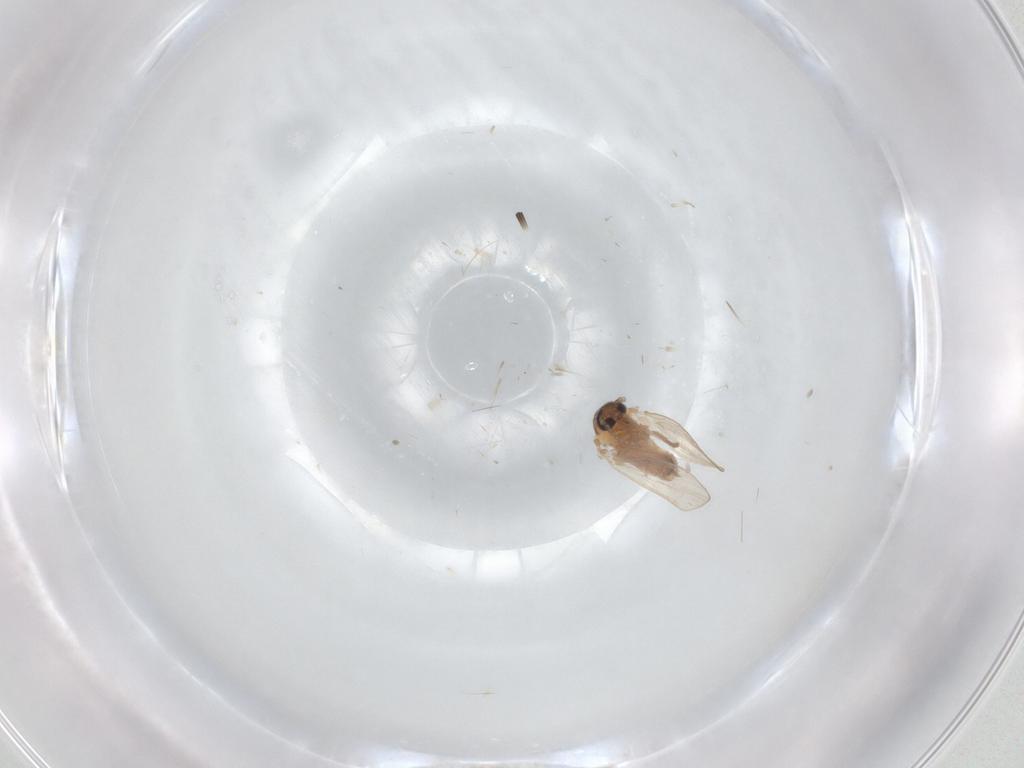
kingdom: Animalia
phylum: Arthropoda
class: Insecta
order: Diptera
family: Psychodidae
